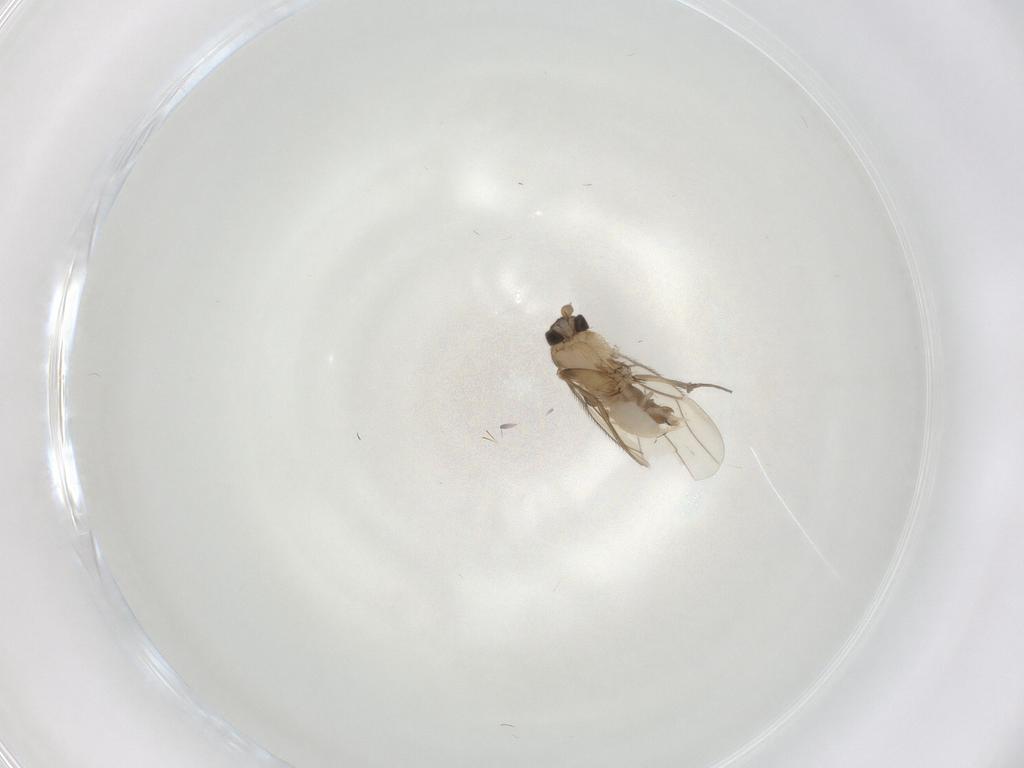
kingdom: Animalia
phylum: Arthropoda
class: Insecta
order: Diptera
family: Phoridae
